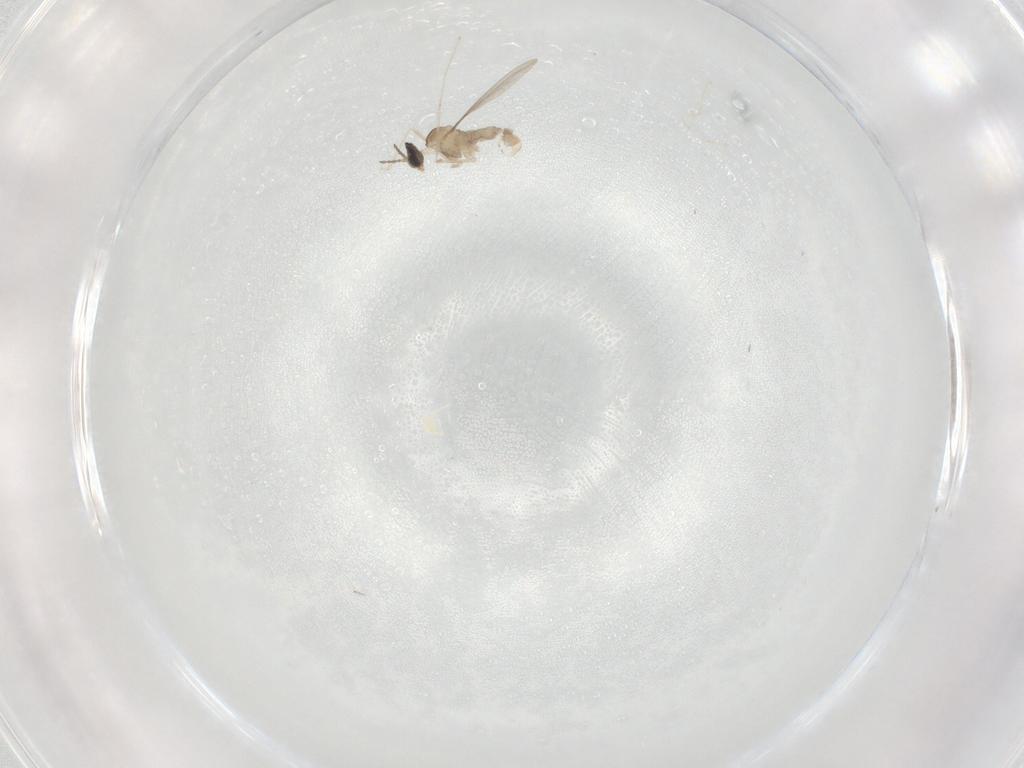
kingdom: Animalia
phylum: Arthropoda
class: Insecta
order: Diptera
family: Cecidomyiidae
